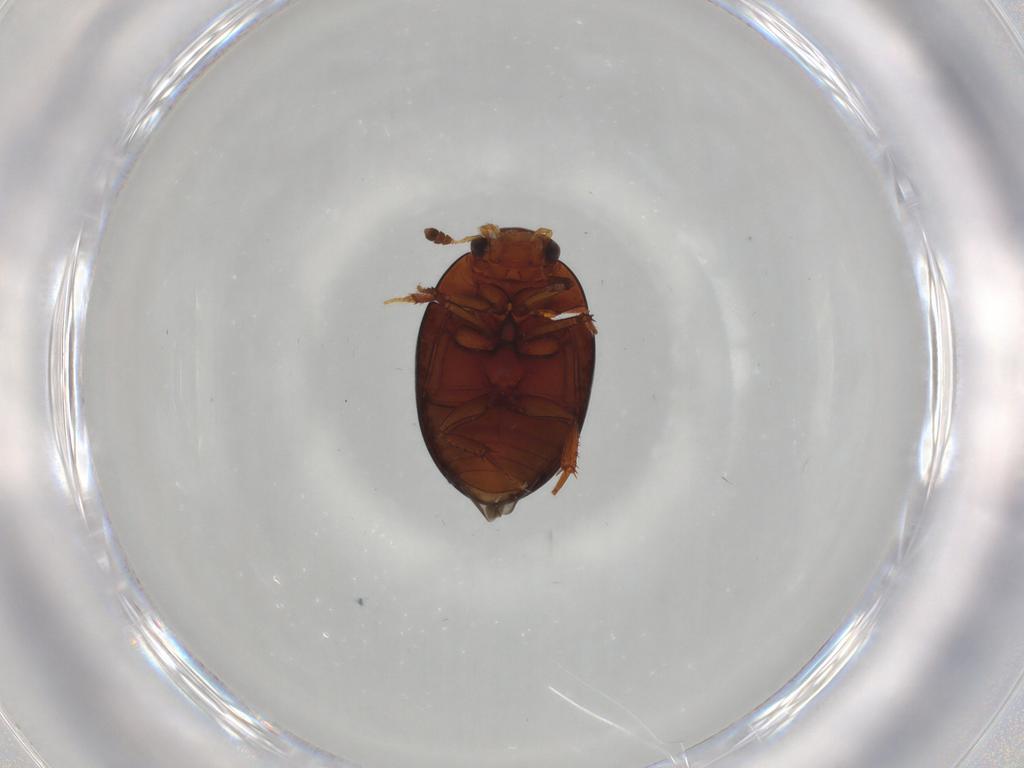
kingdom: Animalia
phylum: Arthropoda
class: Insecta
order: Coleoptera
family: Hydrophilidae
